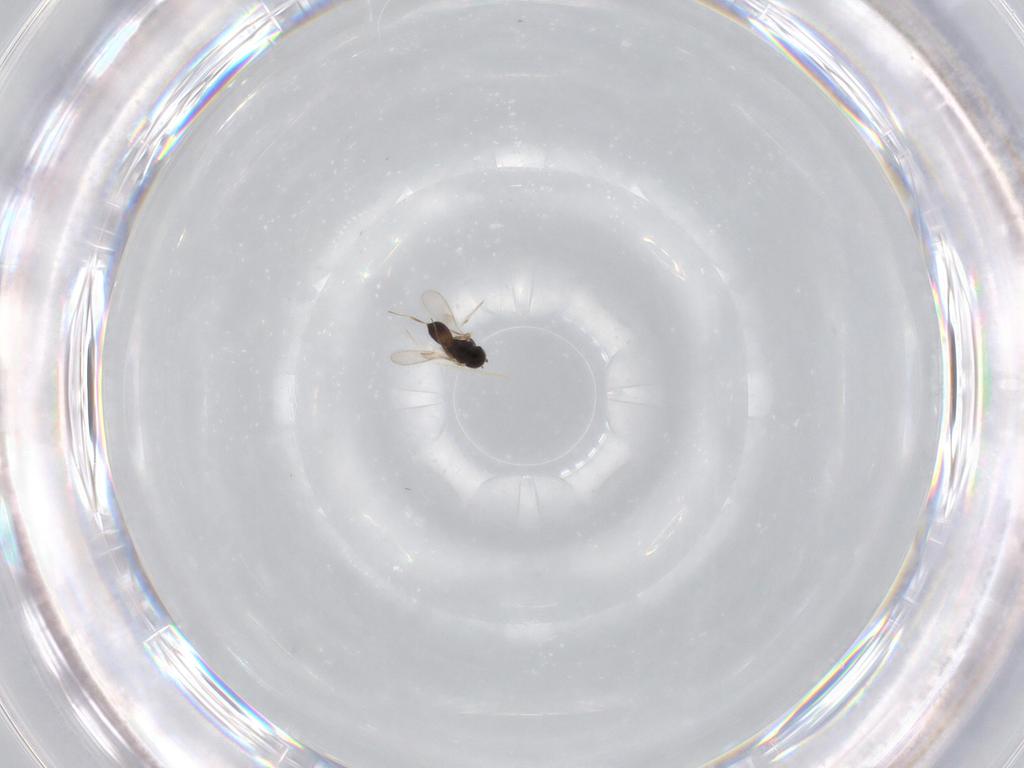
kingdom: Animalia
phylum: Arthropoda
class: Insecta
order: Hymenoptera
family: Scelionidae
